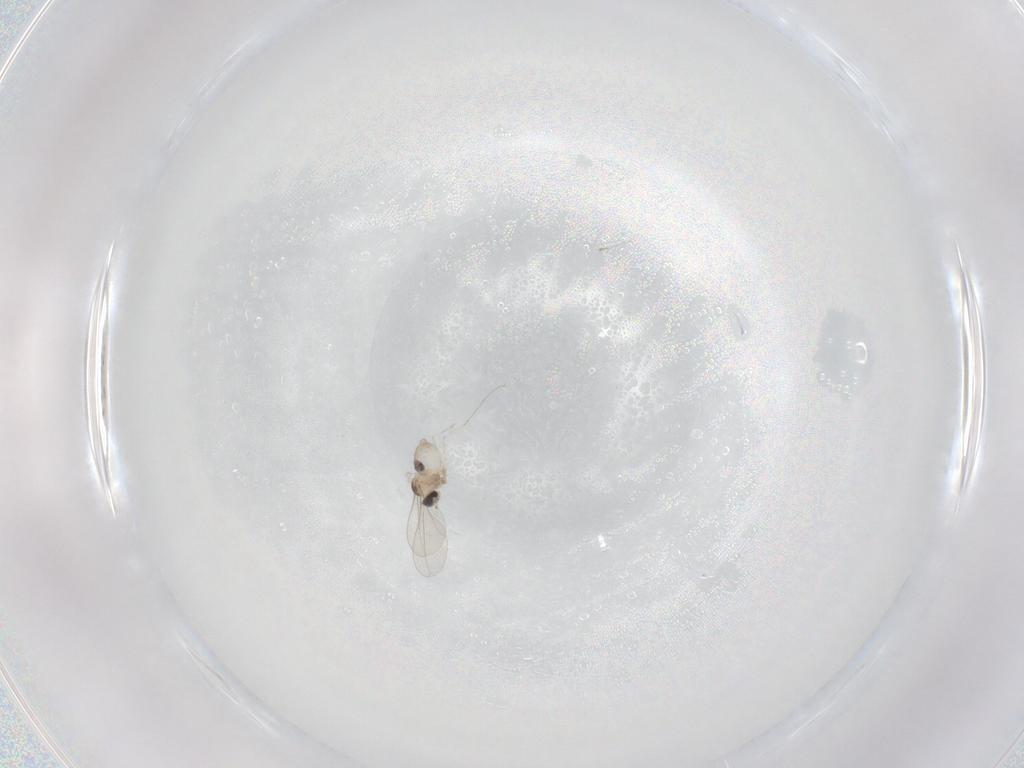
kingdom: Animalia
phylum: Arthropoda
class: Insecta
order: Diptera
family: Cecidomyiidae
